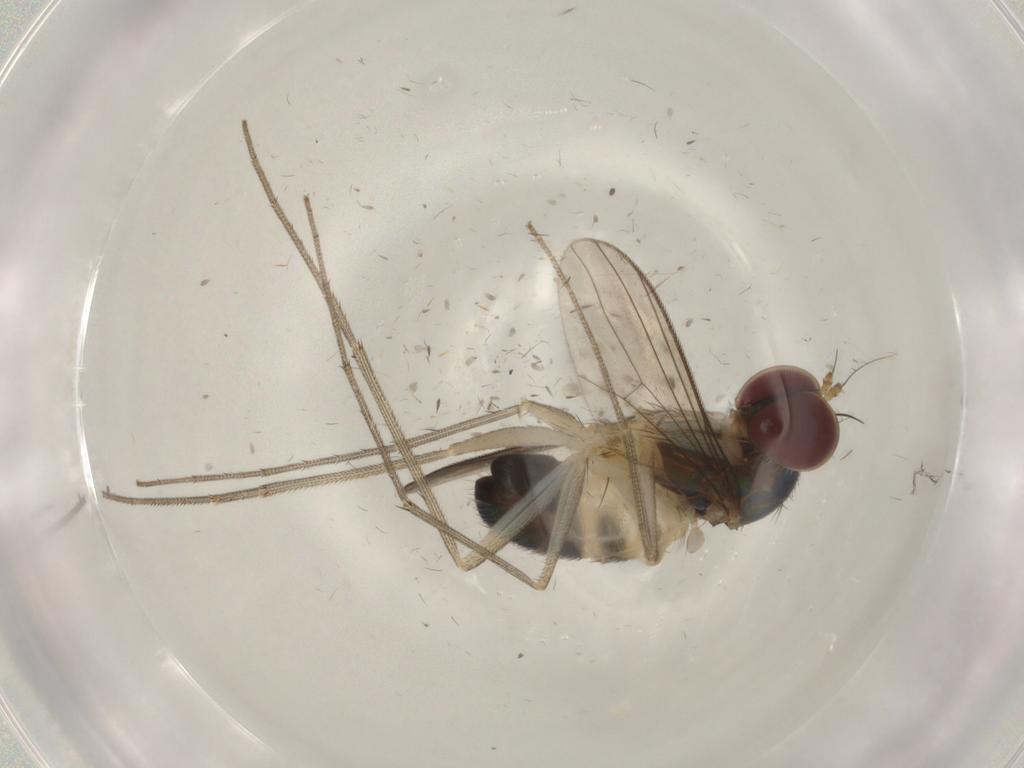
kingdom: Animalia
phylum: Arthropoda
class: Insecta
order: Diptera
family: Dolichopodidae
